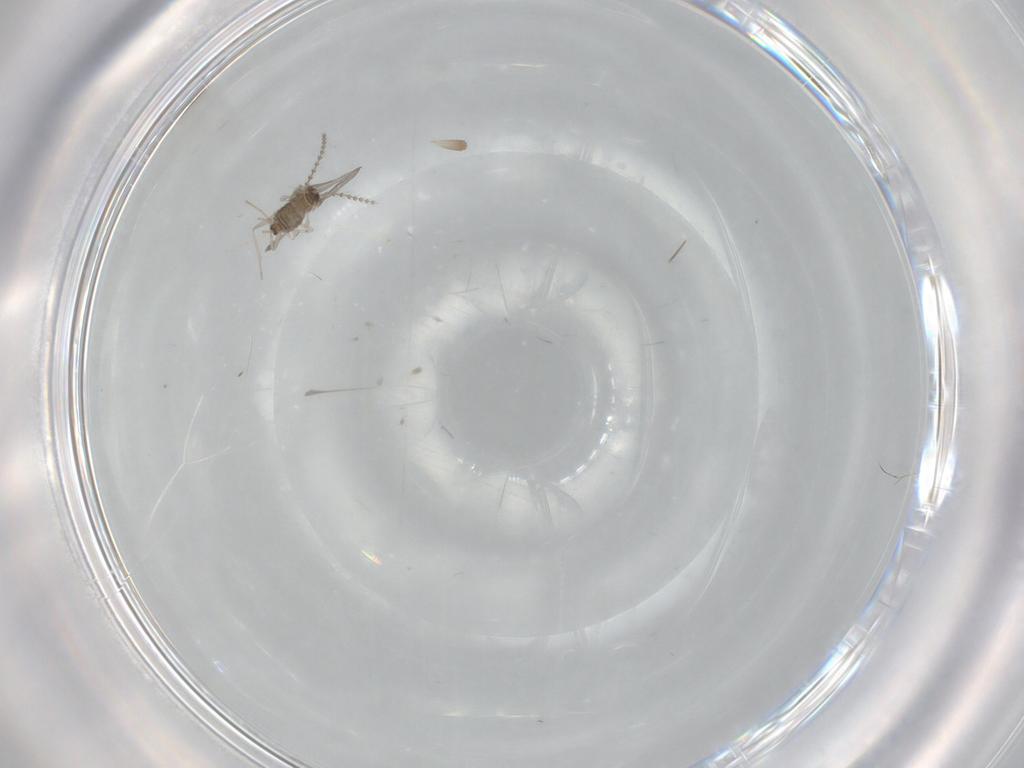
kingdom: Animalia
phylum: Arthropoda
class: Insecta
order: Diptera
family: Cecidomyiidae
